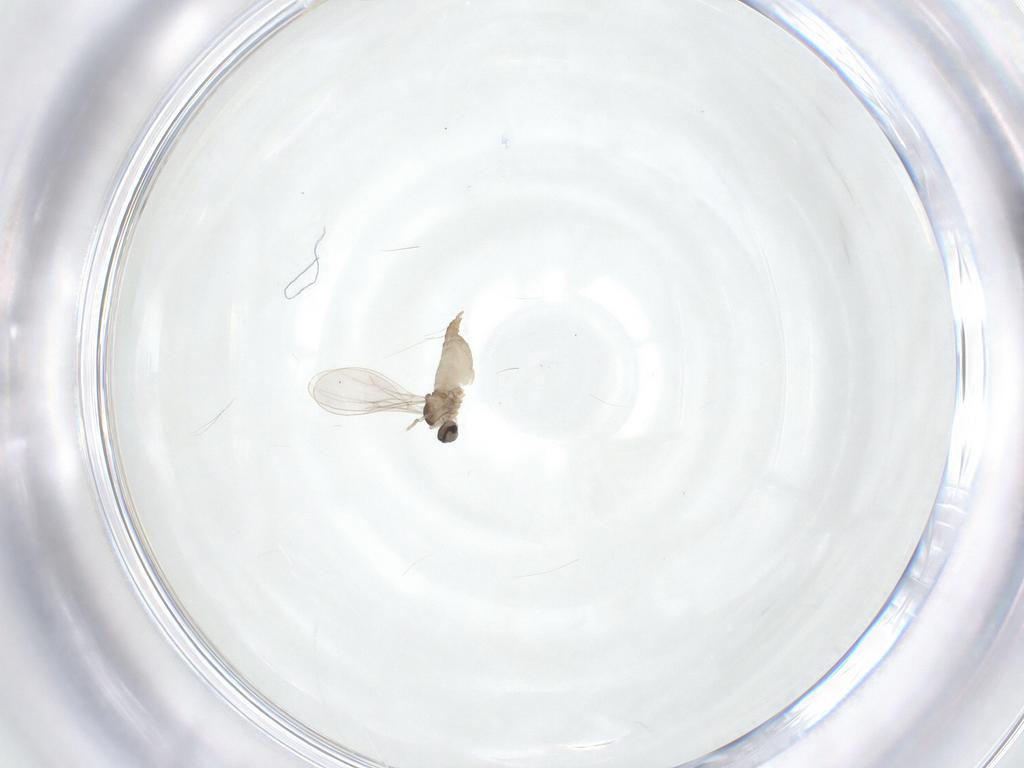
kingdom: Animalia
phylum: Arthropoda
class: Insecta
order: Diptera
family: Cecidomyiidae
